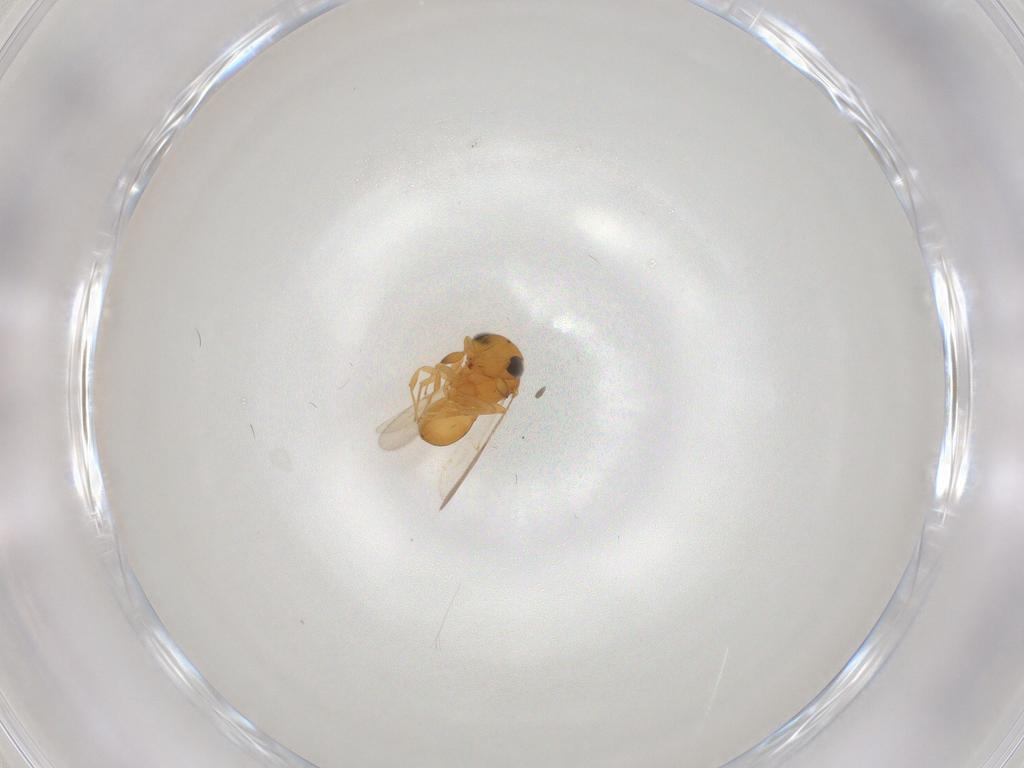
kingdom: Animalia
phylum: Arthropoda
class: Insecta
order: Hymenoptera
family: Scelionidae
